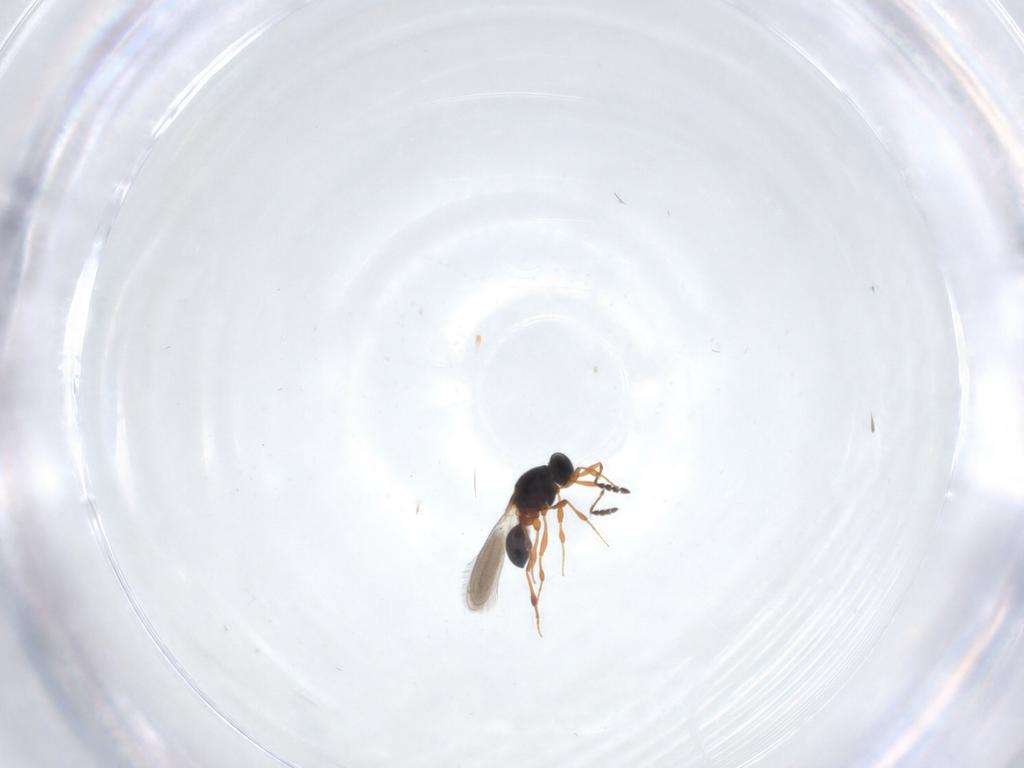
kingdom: Animalia
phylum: Arthropoda
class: Insecta
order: Hymenoptera
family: Platygastridae
